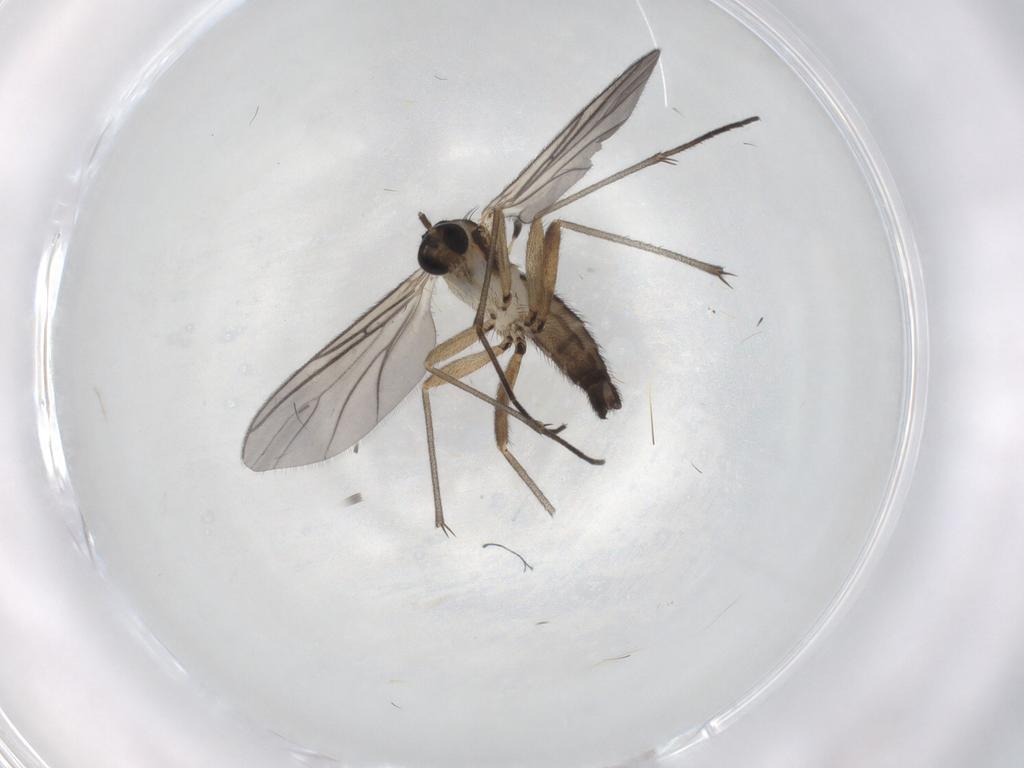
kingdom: Animalia
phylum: Arthropoda
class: Insecta
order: Diptera
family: Sciaridae
